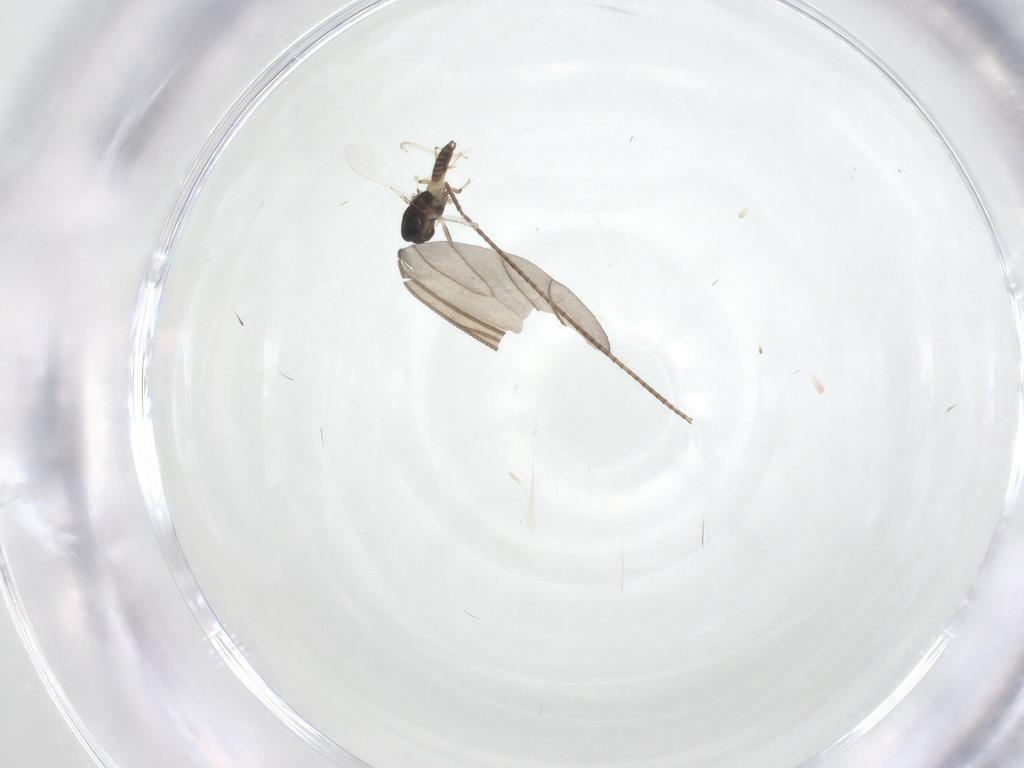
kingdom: Animalia
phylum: Arthropoda
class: Insecta
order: Diptera
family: Chironomidae
